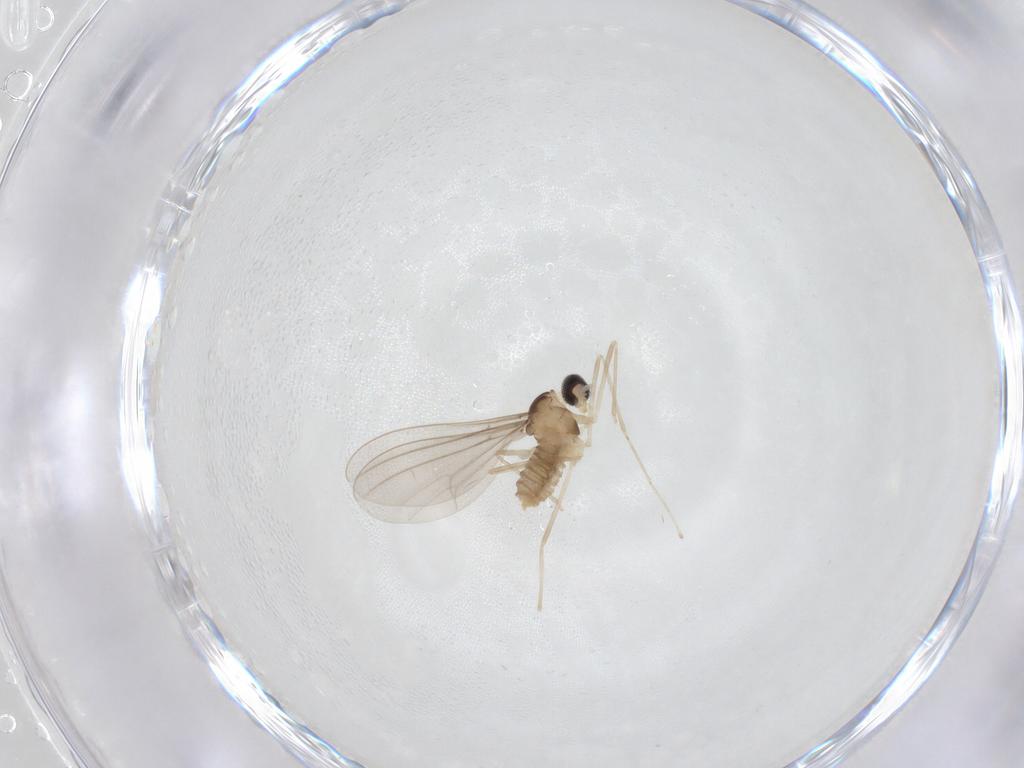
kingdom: Animalia
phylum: Arthropoda
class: Insecta
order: Diptera
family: Cecidomyiidae
